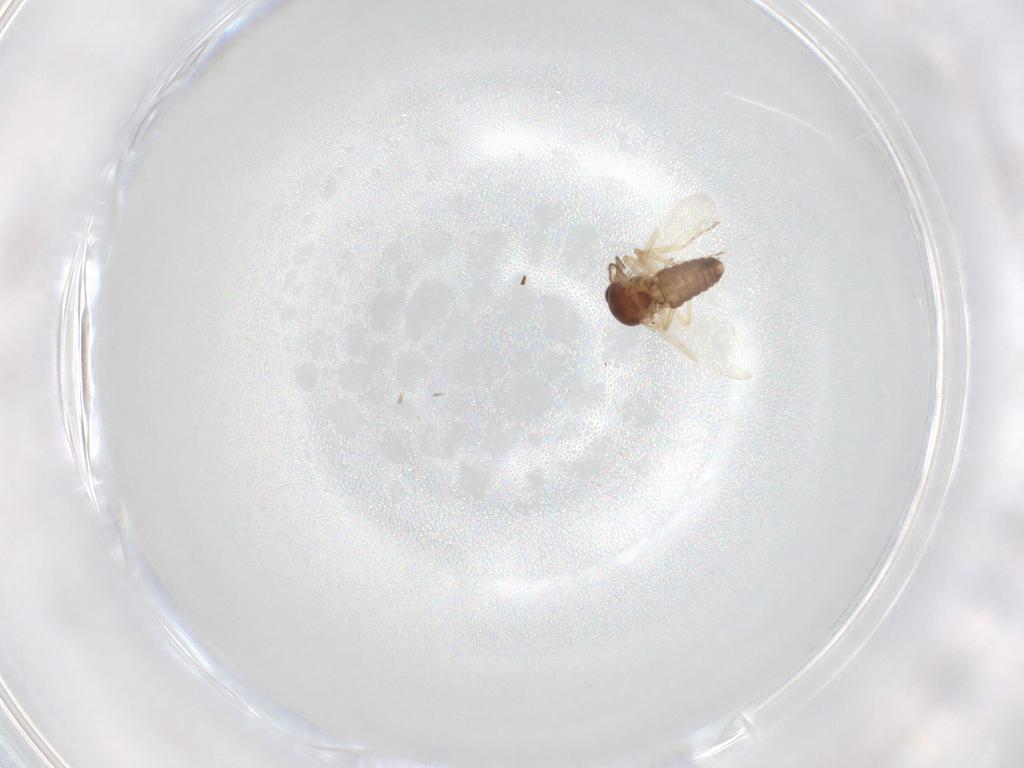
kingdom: Animalia
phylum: Arthropoda
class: Insecta
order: Diptera
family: Ceratopogonidae
